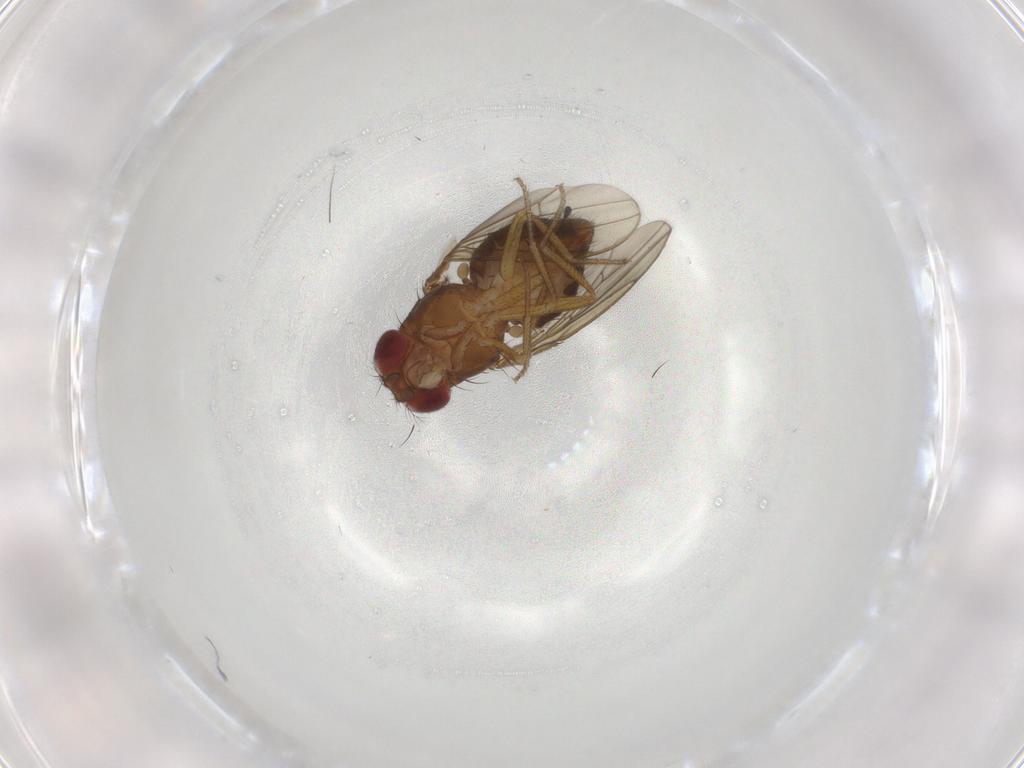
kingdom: Animalia
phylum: Arthropoda
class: Insecta
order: Diptera
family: Drosophilidae
